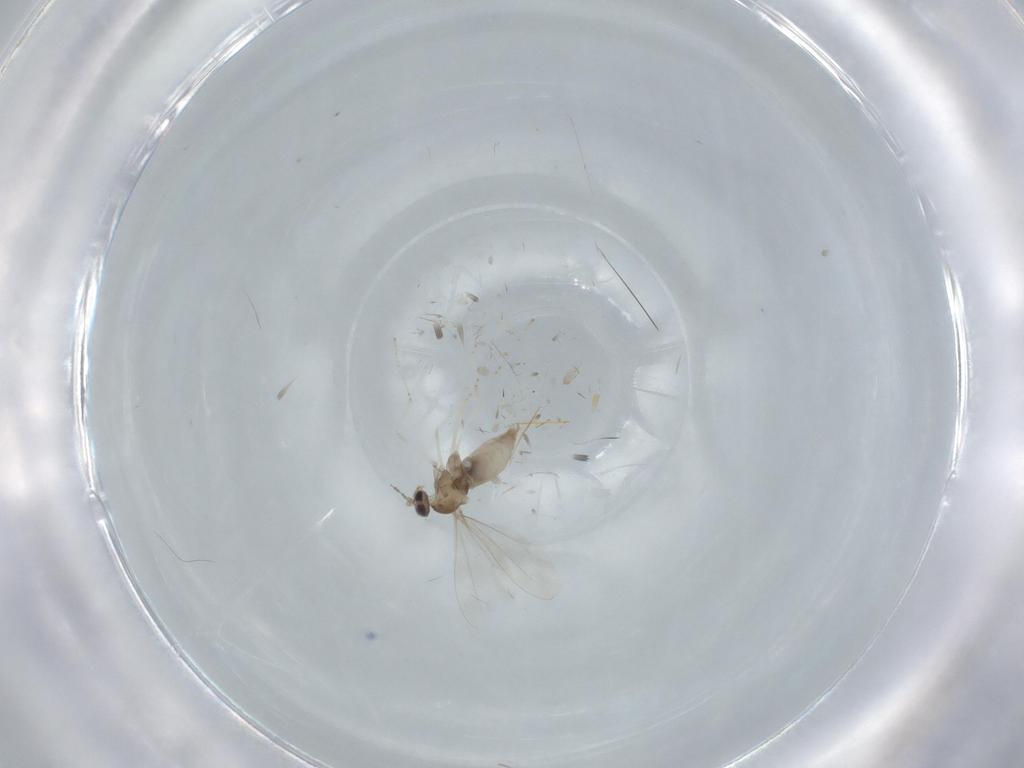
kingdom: Animalia
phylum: Arthropoda
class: Insecta
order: Diptera
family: Cecidomyiidae
